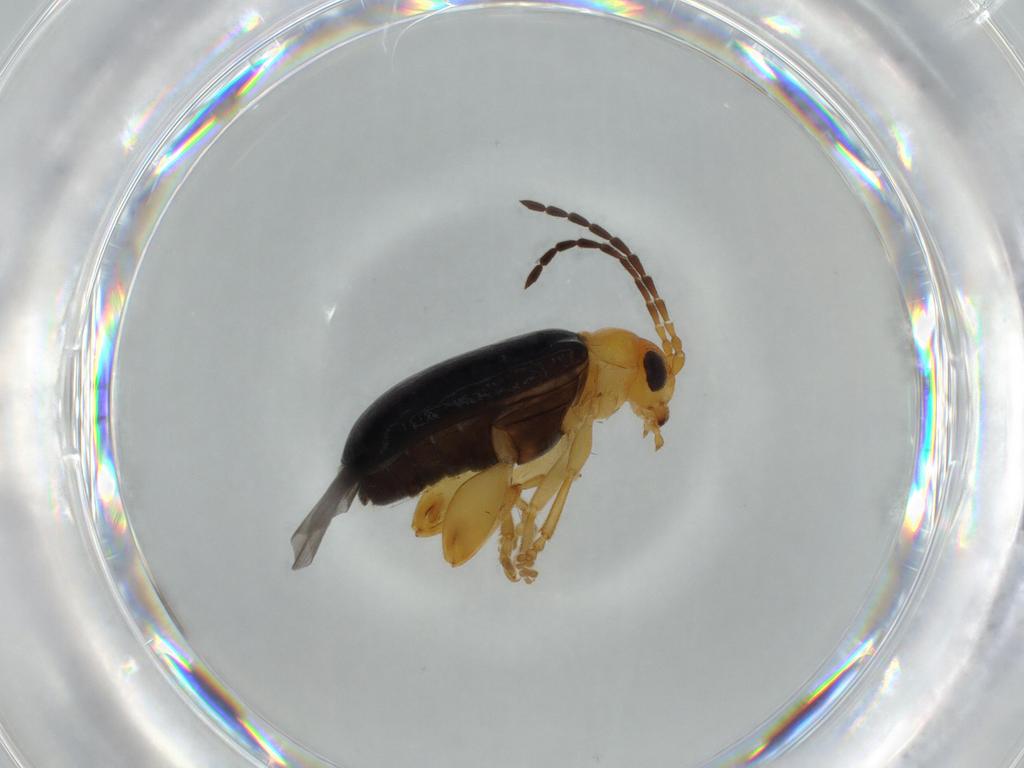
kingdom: Animalia
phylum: Arthropoda
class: Insecta
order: Coleoptera
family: Chrysomelidae
